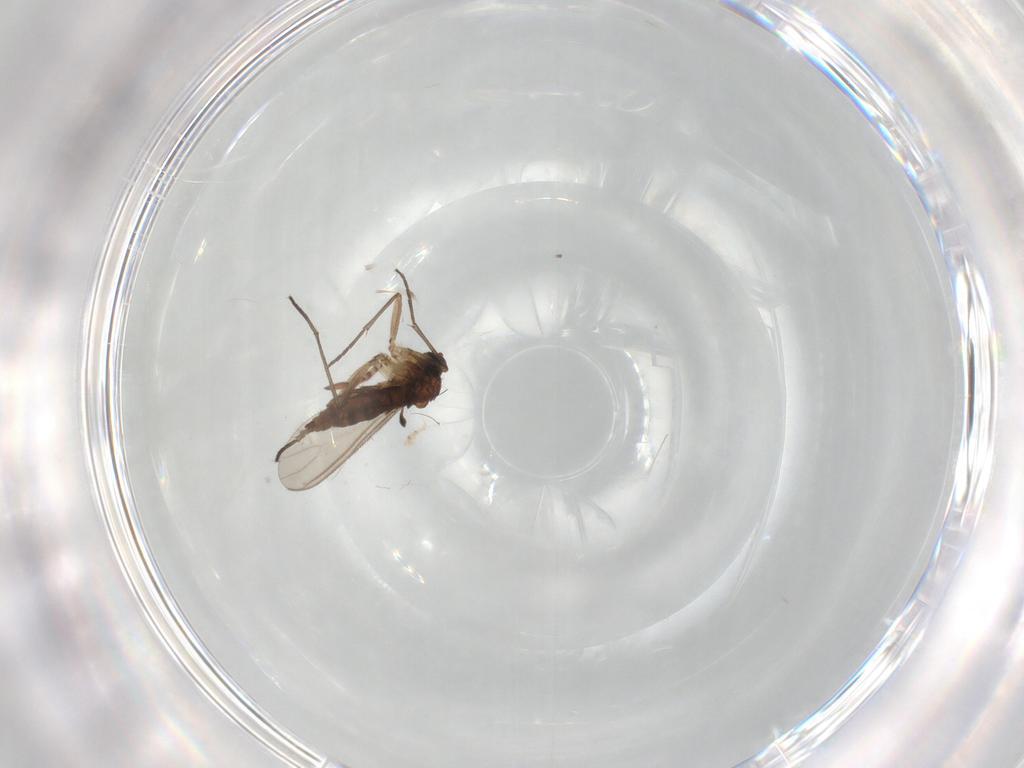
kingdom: Animalia
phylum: Arthropoda
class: Insecta
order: Diptera
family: Sciaridae
